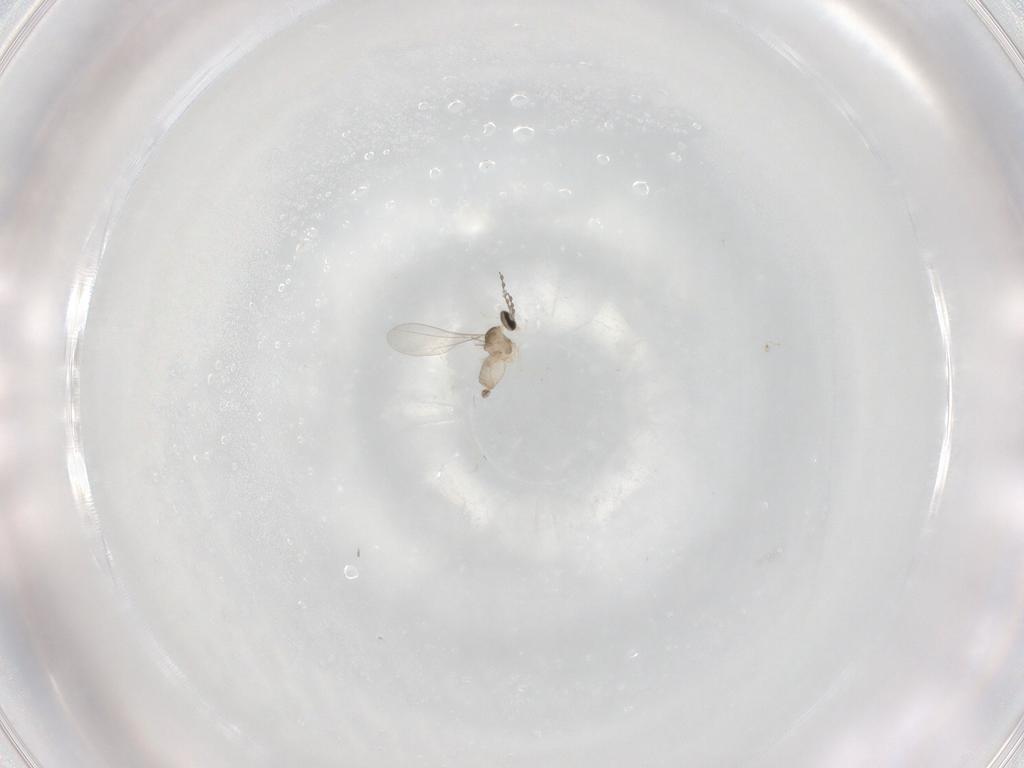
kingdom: Animalia
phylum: Arthropoda
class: Insecta
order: Diptera
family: Cecidomyiidae
